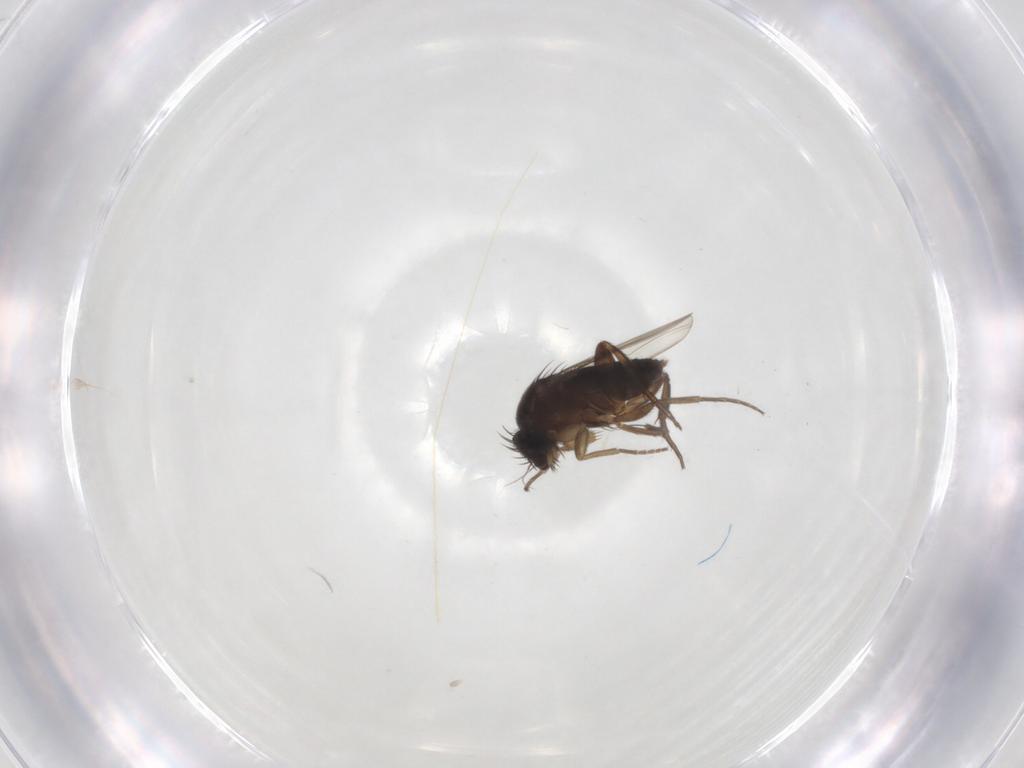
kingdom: Animalia
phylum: Arthropoda
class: Insecta
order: Diptera
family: Phoridae
